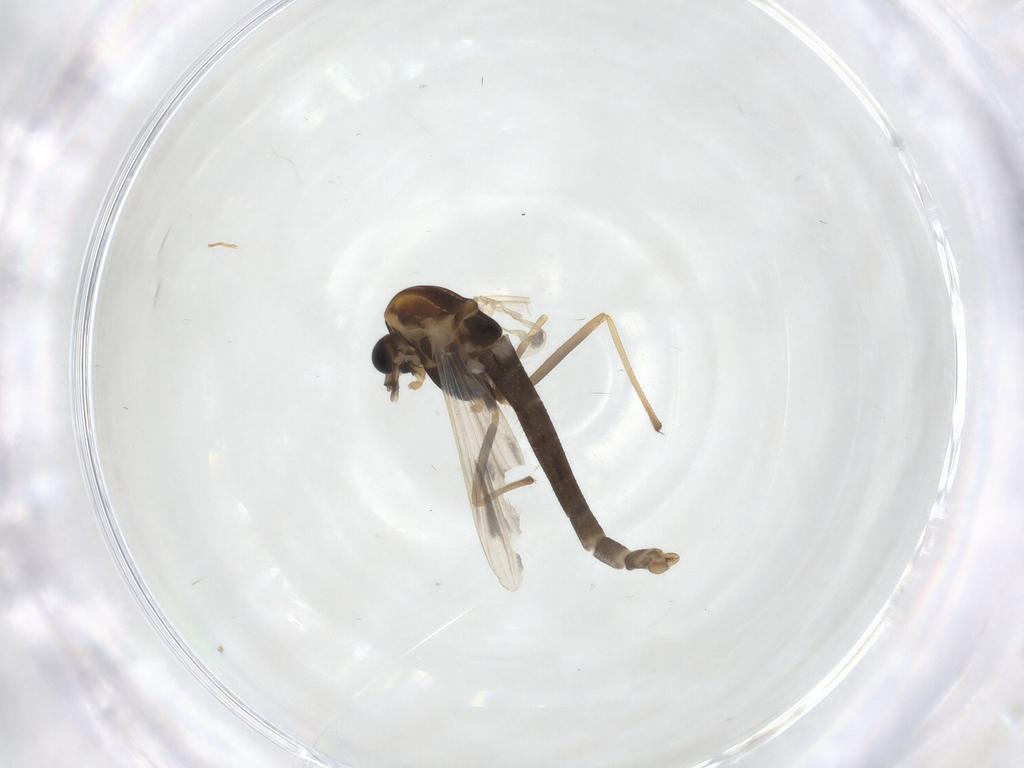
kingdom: Animalia
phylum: Arthropoda
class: Insecta
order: Diptera
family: Chironomidae
